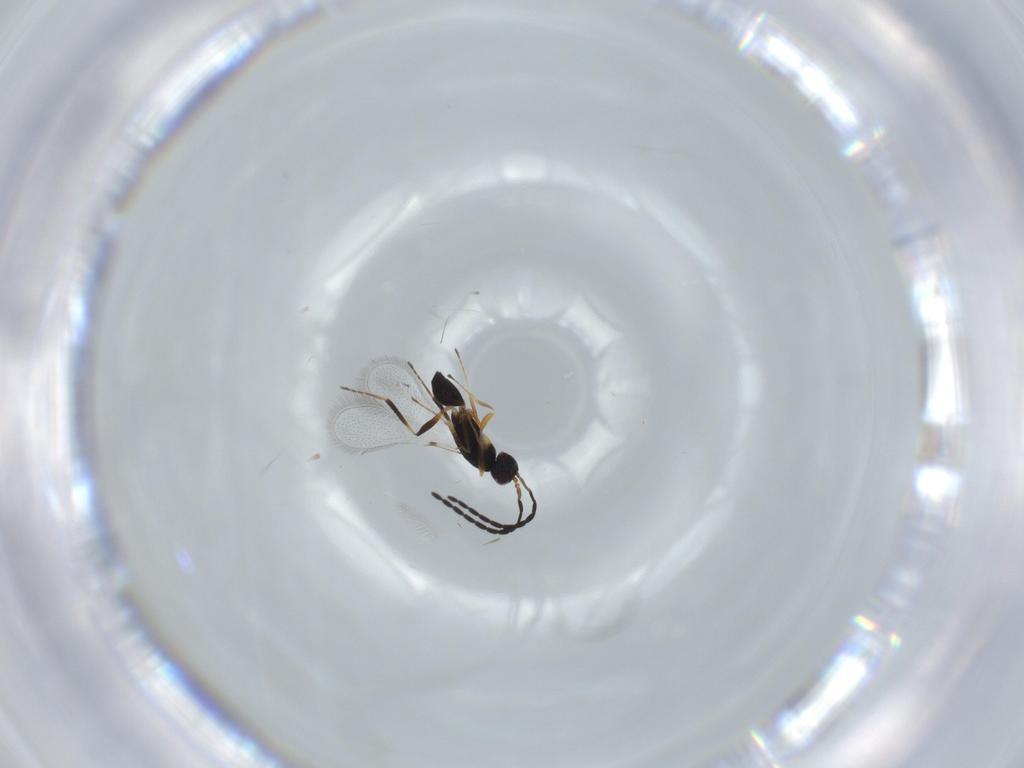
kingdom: Animalia
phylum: Arthropoda
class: Insecta
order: Hymenoptera
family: Mymaridae
